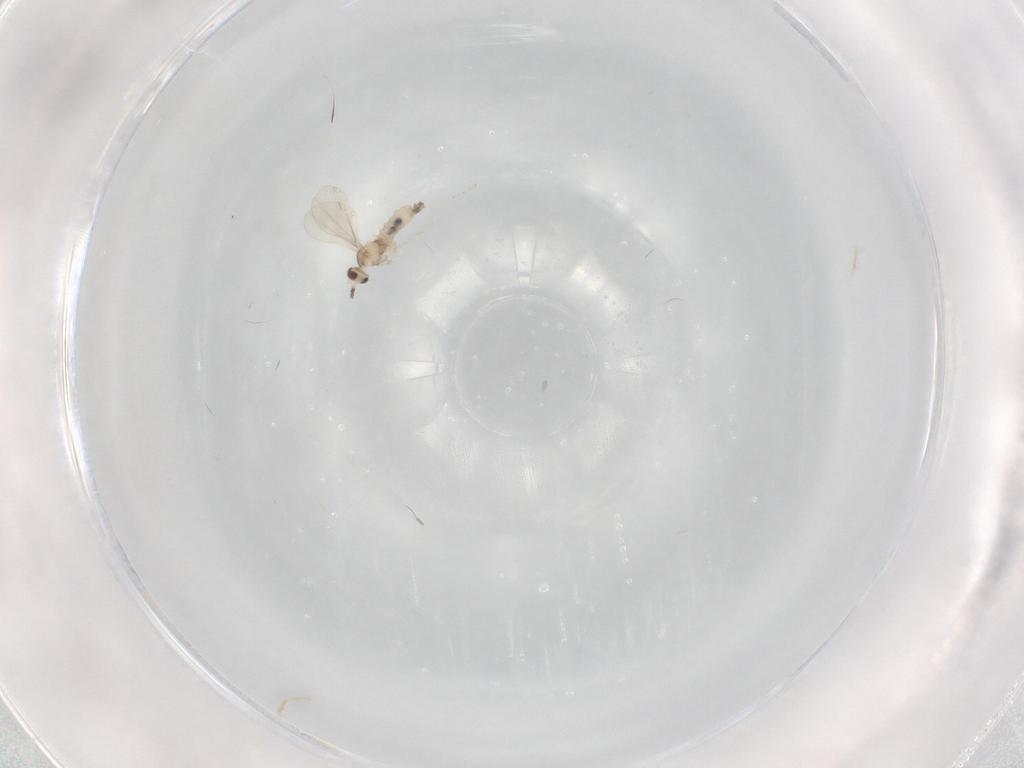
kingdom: Animalia
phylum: Arthropoda
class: Insecta
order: Diptera
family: Cecidomyiidae
